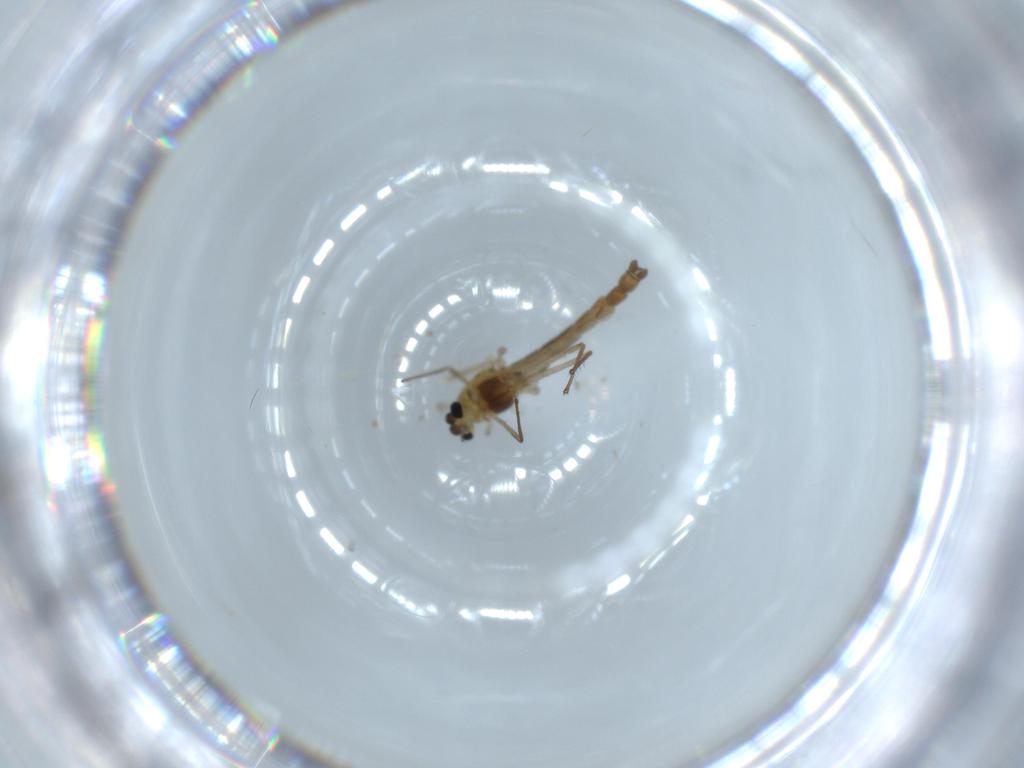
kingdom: Animalia
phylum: Arthropoda
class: Insecta
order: Diptera
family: Chironomidae
